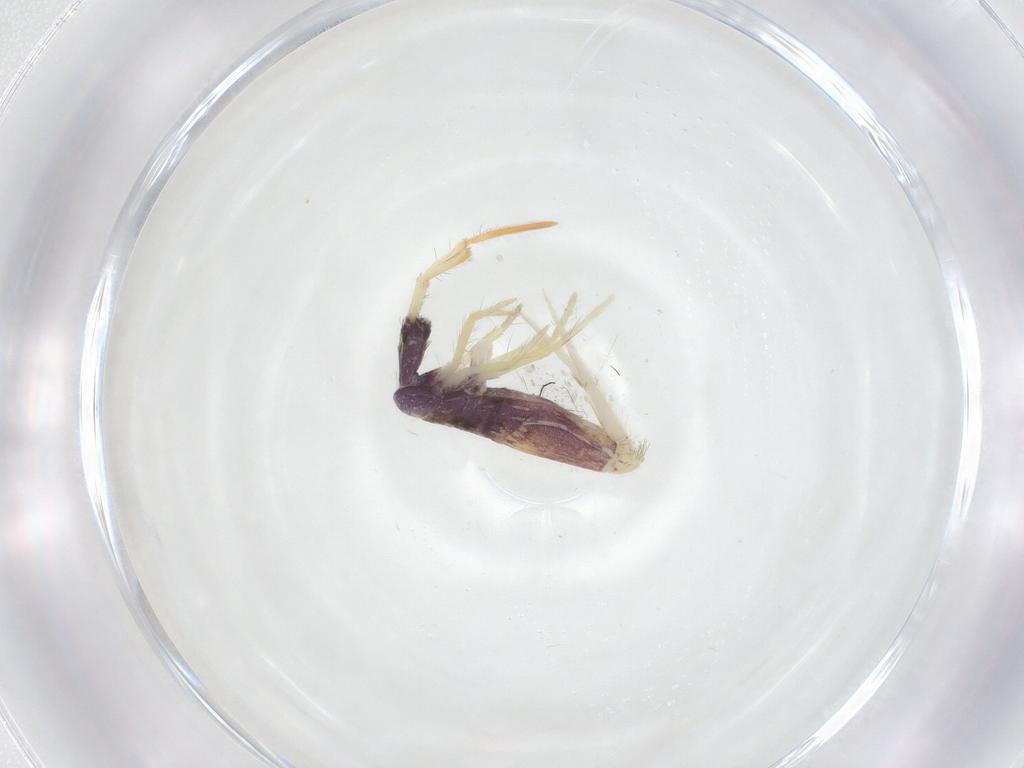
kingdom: Animalia
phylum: Arthropoda
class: Collembola
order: Entomobryomorpha
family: Entomobryidae
